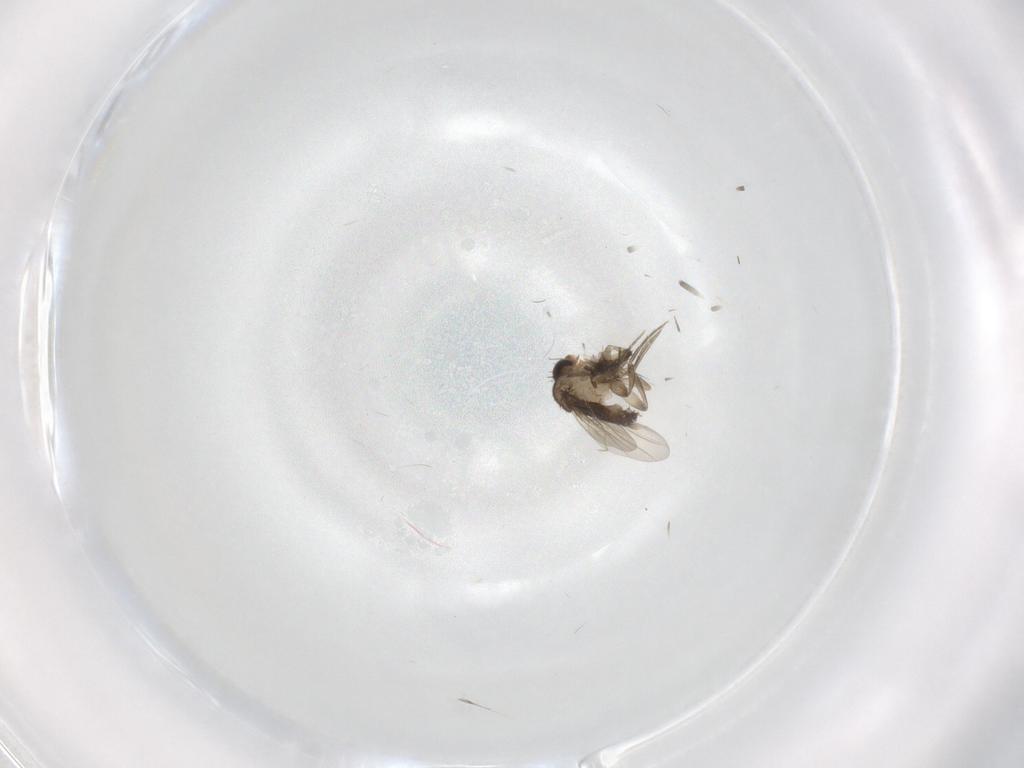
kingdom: Animalia
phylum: Arthropoda
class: Insecta
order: Diptera
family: Phoridae
